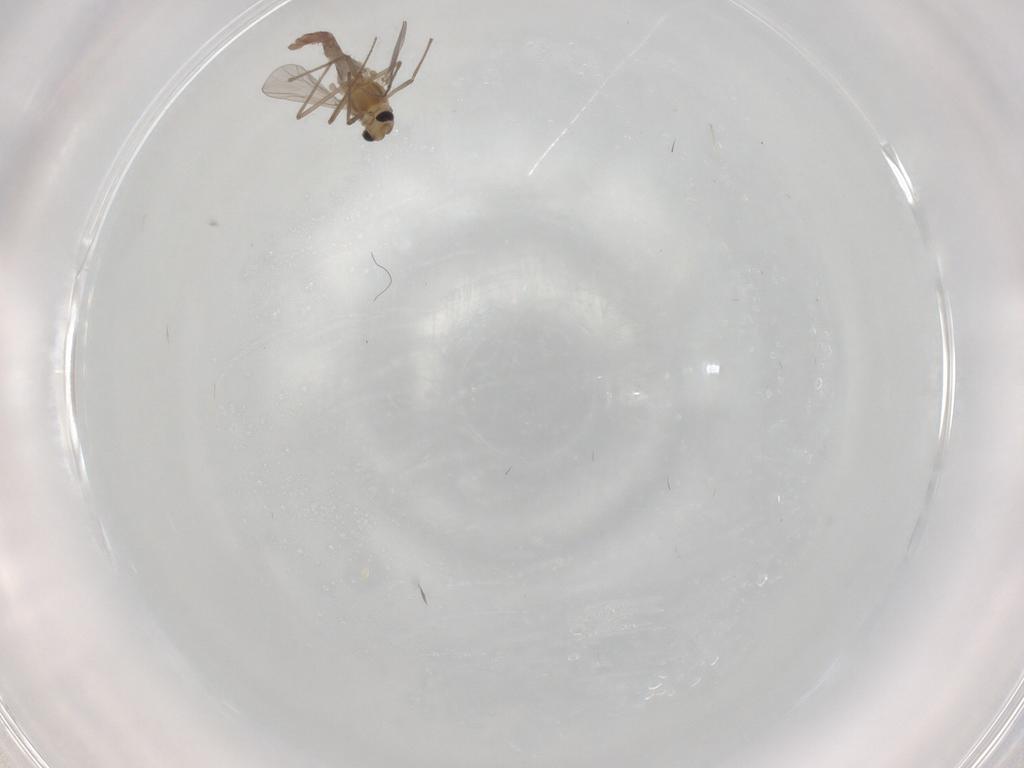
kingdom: Animalia
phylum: Arthropoda
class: Insecta
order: Diptera
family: Chironomidae
